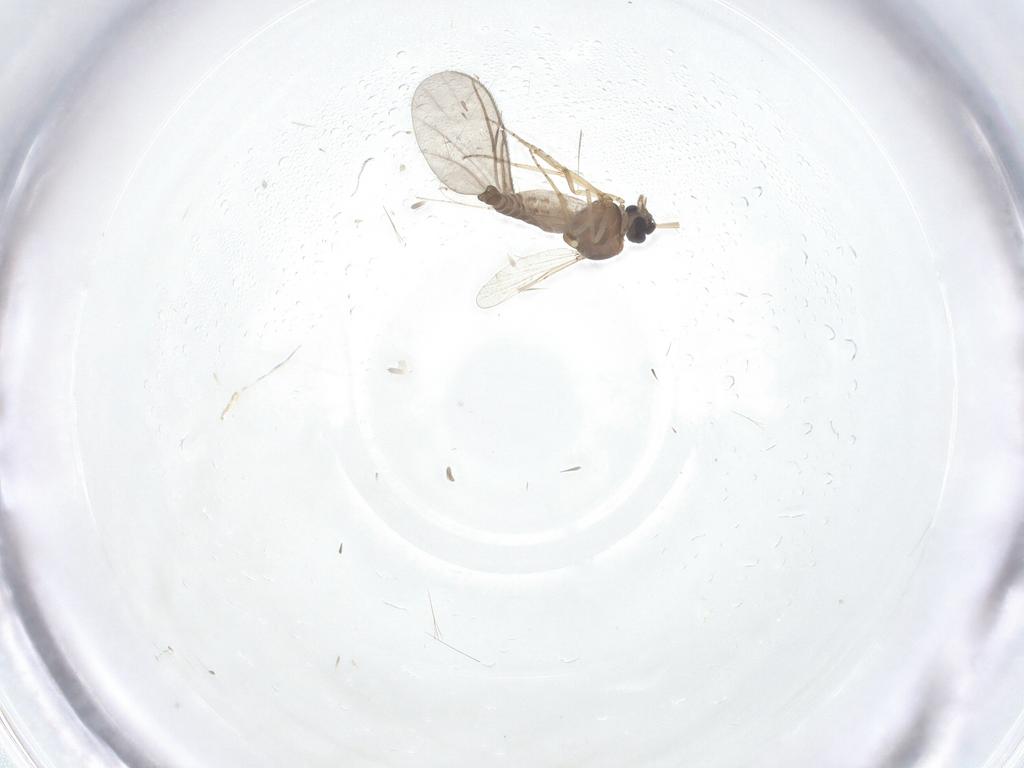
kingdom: Animalia
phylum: Arthropoda
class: Insecta
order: Diptera
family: Ceratopogonidae
